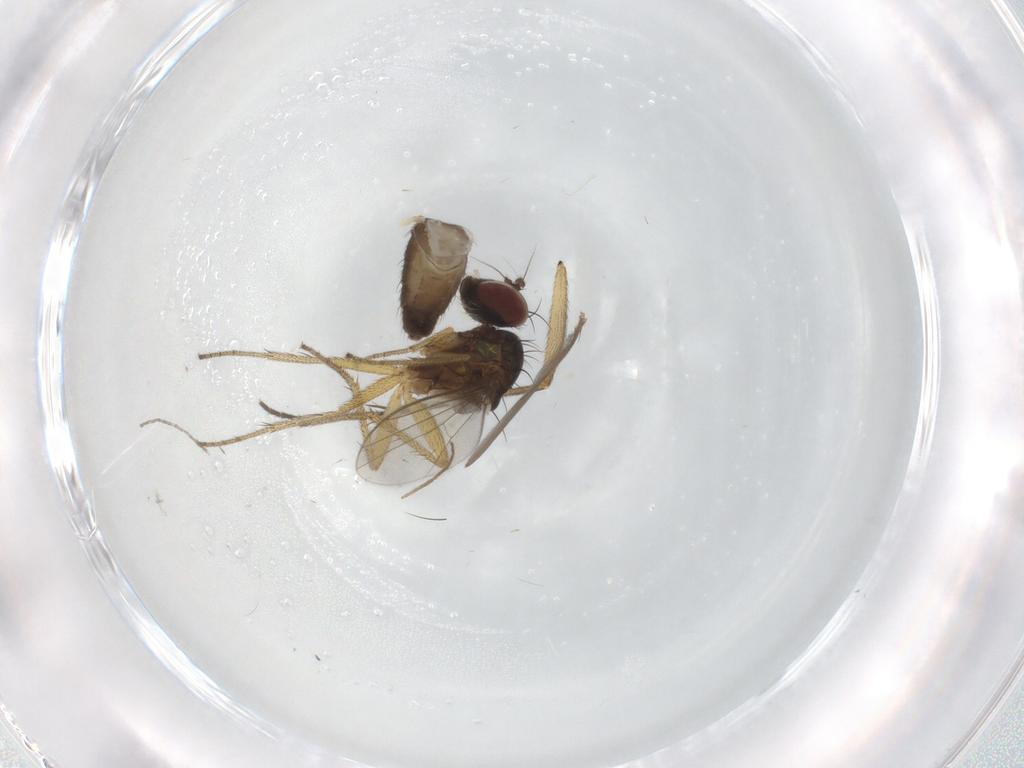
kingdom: Animalia
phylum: Arthropoda
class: Insecta
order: Diptera
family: Dolichopodidae
